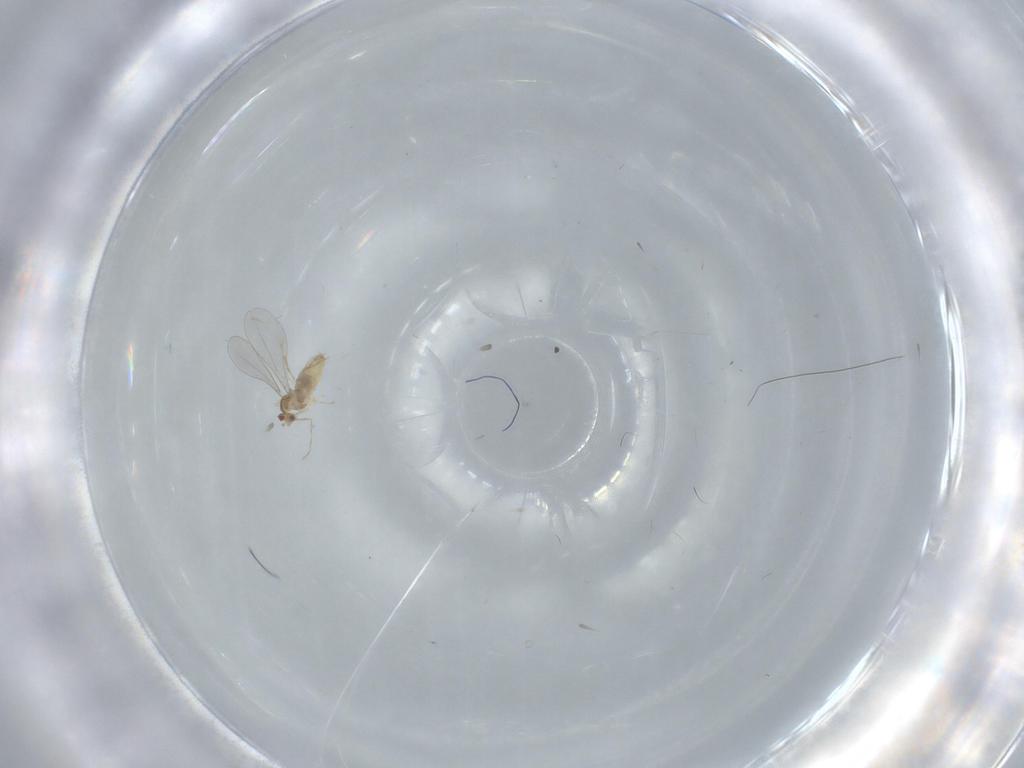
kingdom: Animalia
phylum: Arthropoda
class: Insecta
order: Diptera
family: Cecidomyiidae
